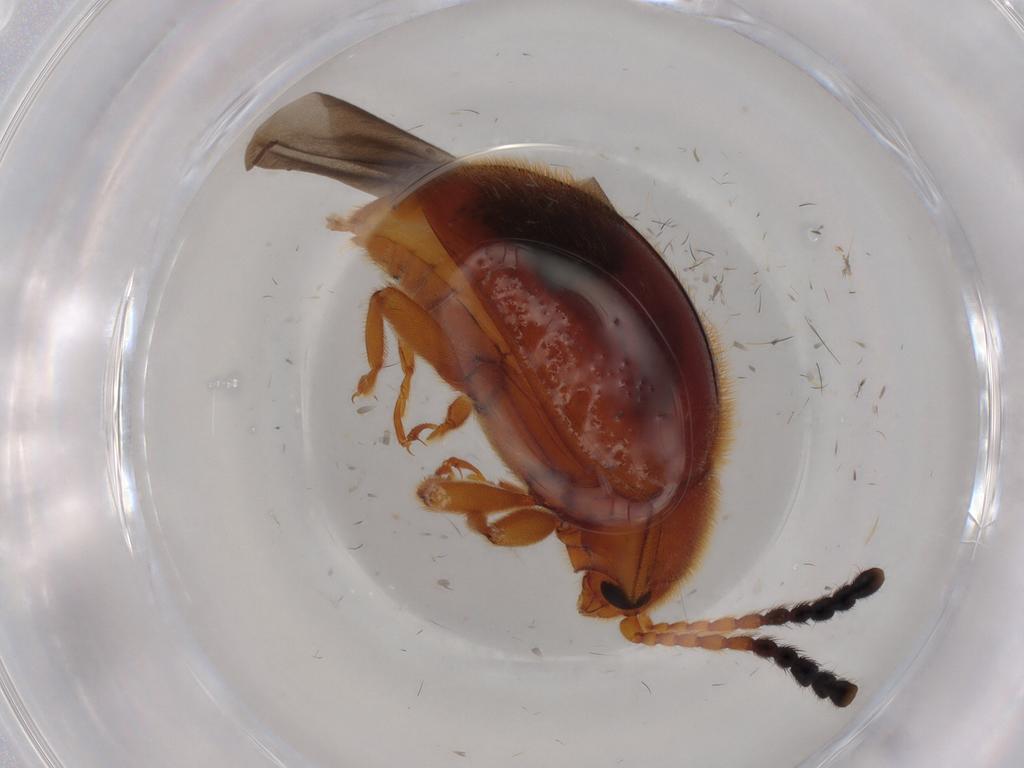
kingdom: Animalia
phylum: Arthropoda
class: Insecta
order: Coleoptera
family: Endomychidae
